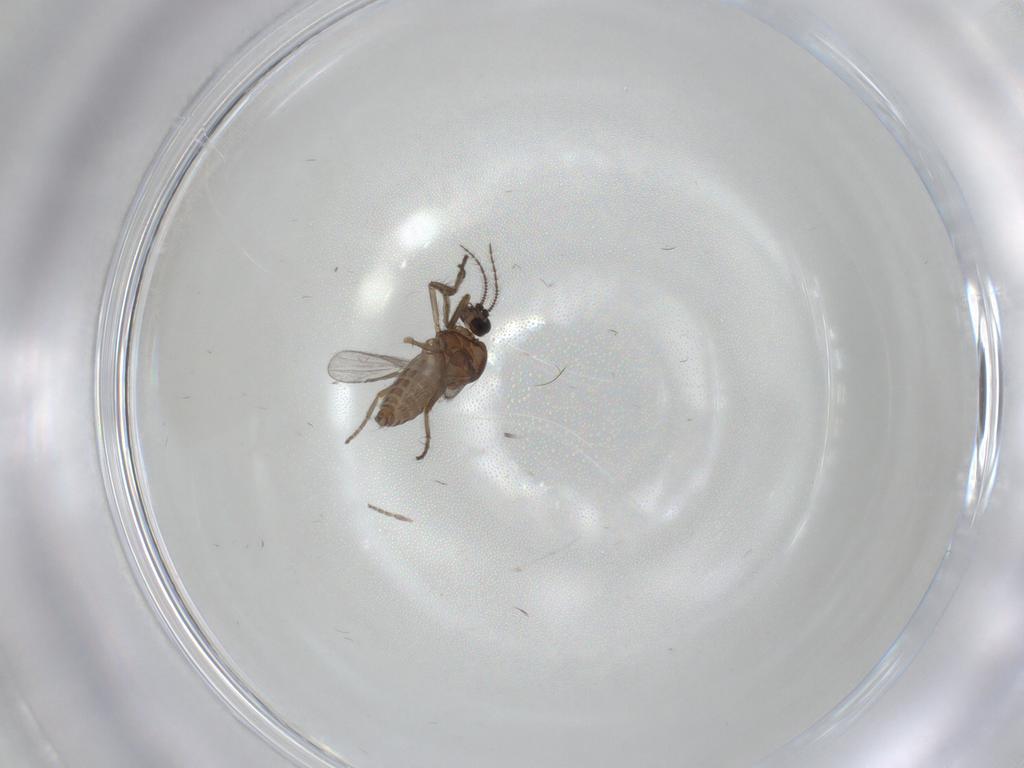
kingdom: Animalia
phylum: Arthropoda
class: Insecta
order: Diptera
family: Ceratopogonidae
